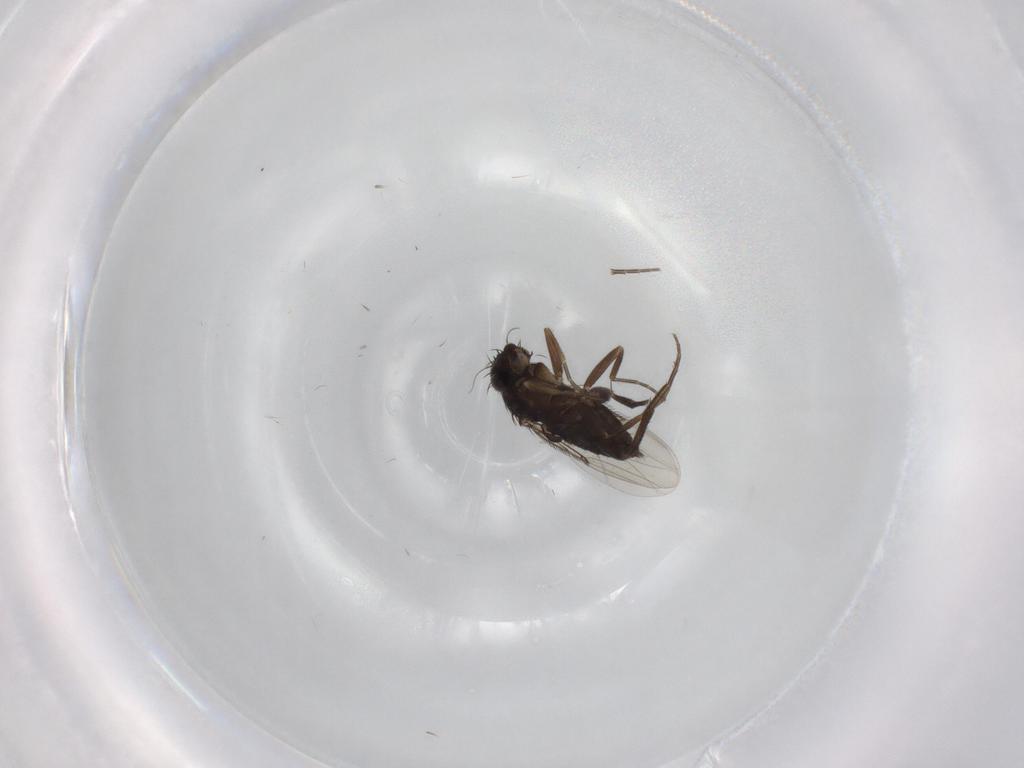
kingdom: Animalia
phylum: Arthropoda
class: Insecta
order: Diptera
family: Phoridae
